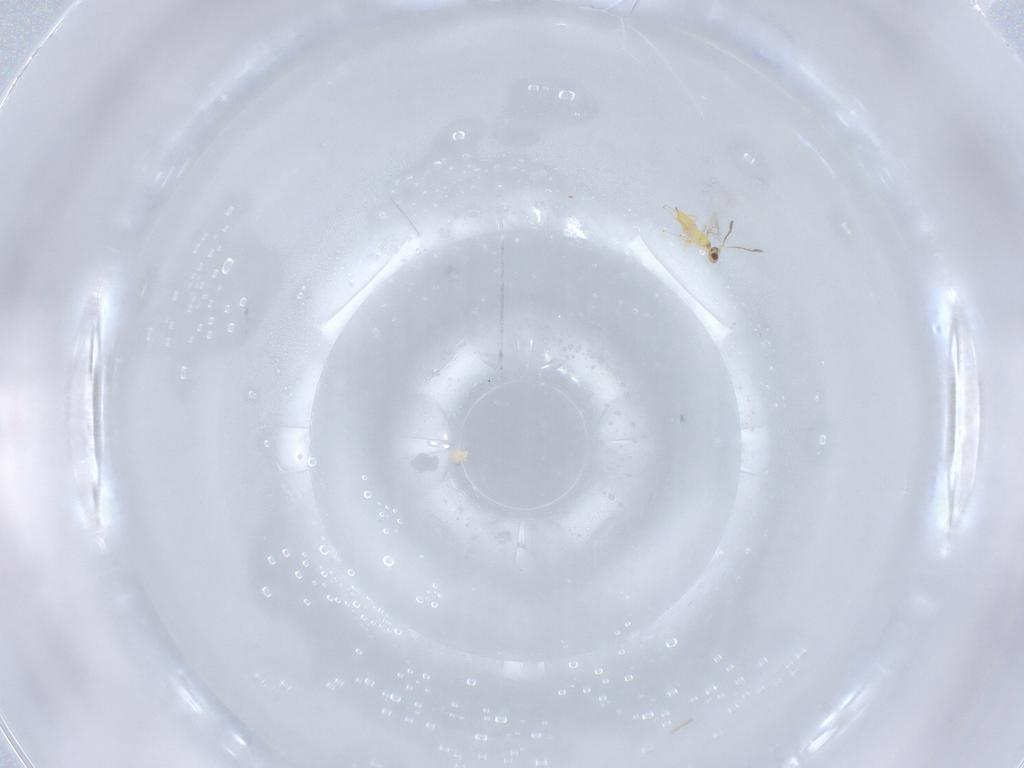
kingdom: Animalia
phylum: Arthropoda
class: Insecta
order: Hymenoptera
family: Mymaridae
